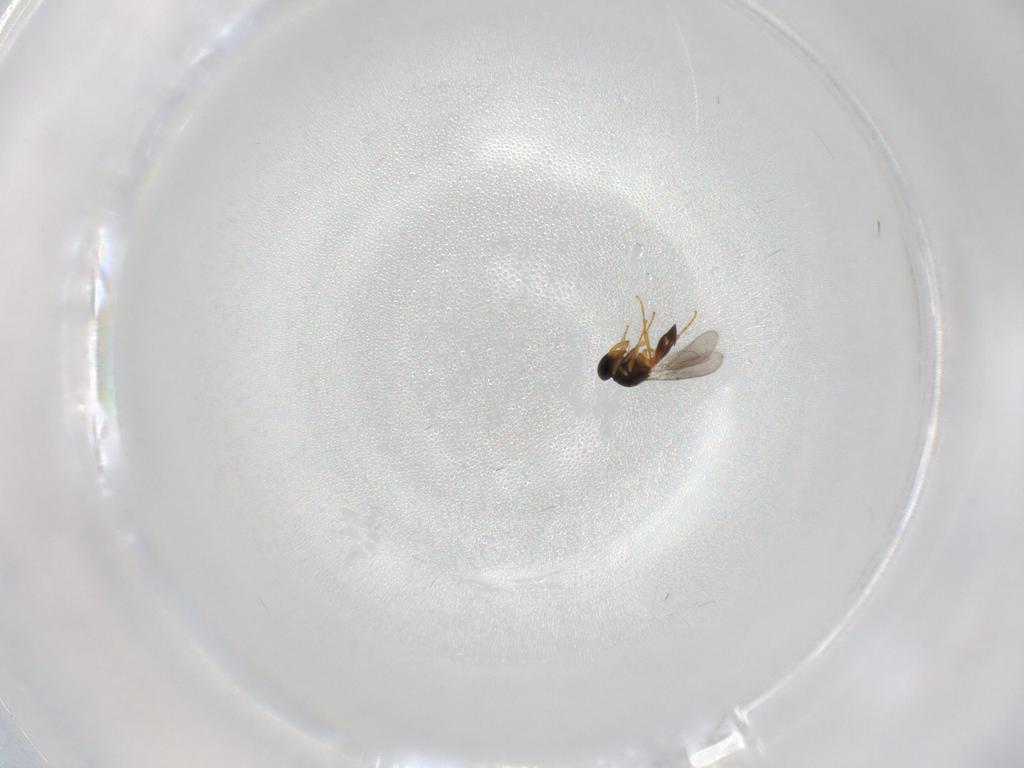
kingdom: Animalia
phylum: Arthropoda
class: Insecta
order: Hymenoptera
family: Platygastridae
